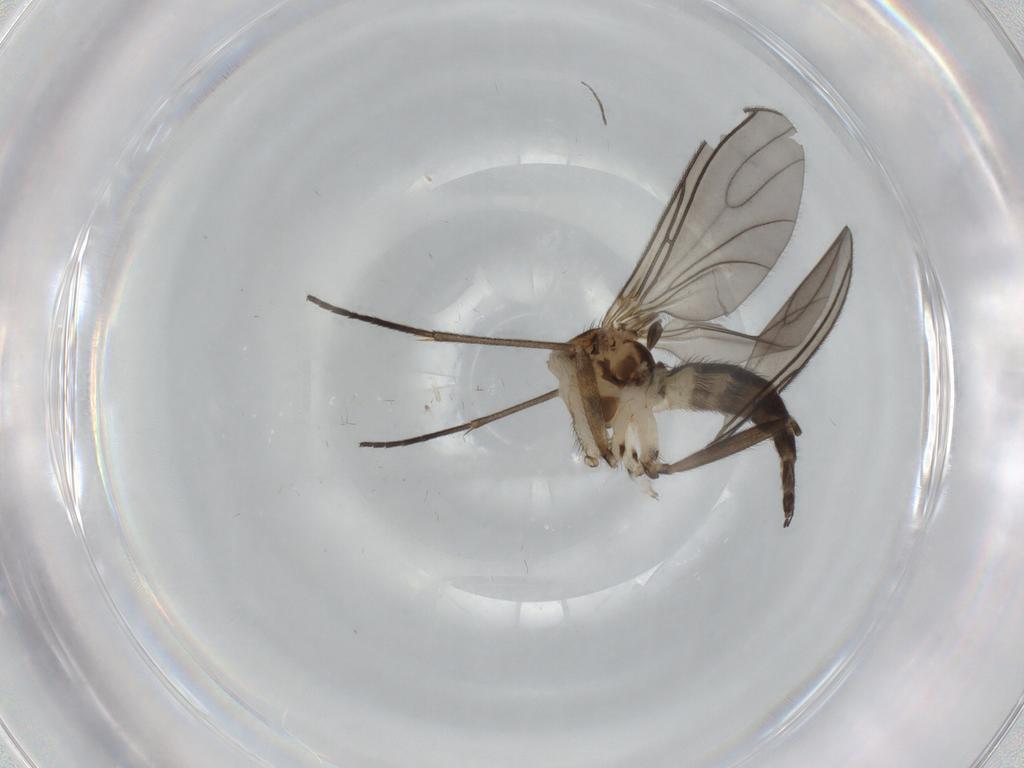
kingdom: Animalia
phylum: Arthropoda
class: Insecta
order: Diptera
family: Sciaridae
